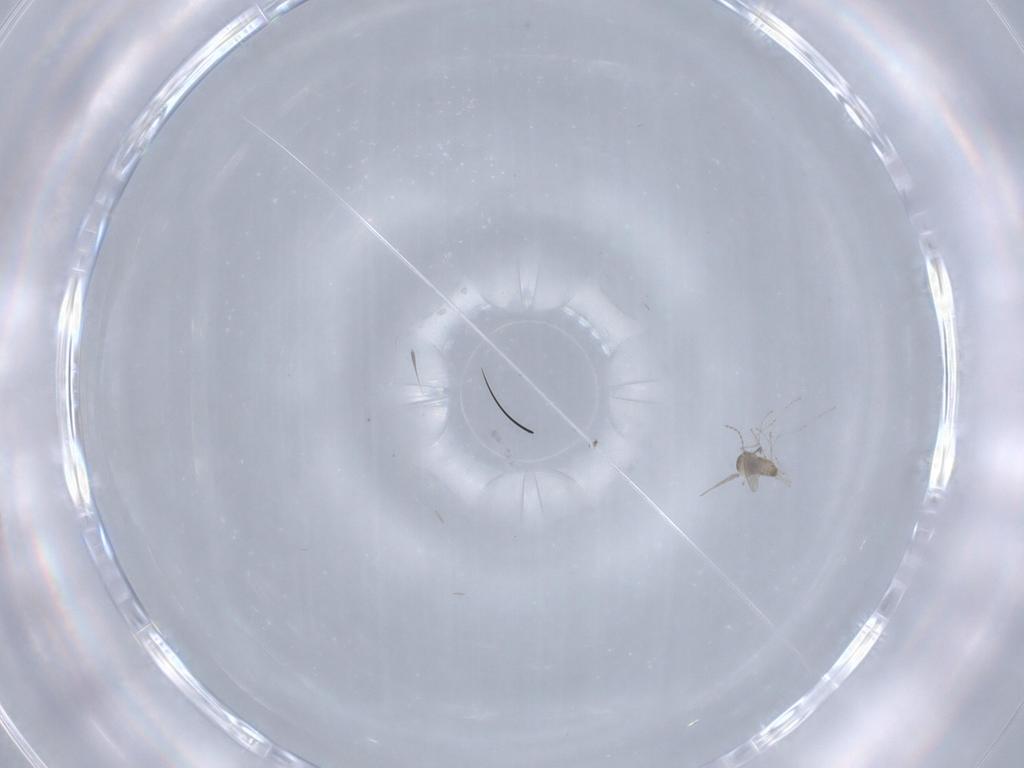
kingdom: Animalia
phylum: Arthropoda
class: Insecta
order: Diptera
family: Dolichopodidae
